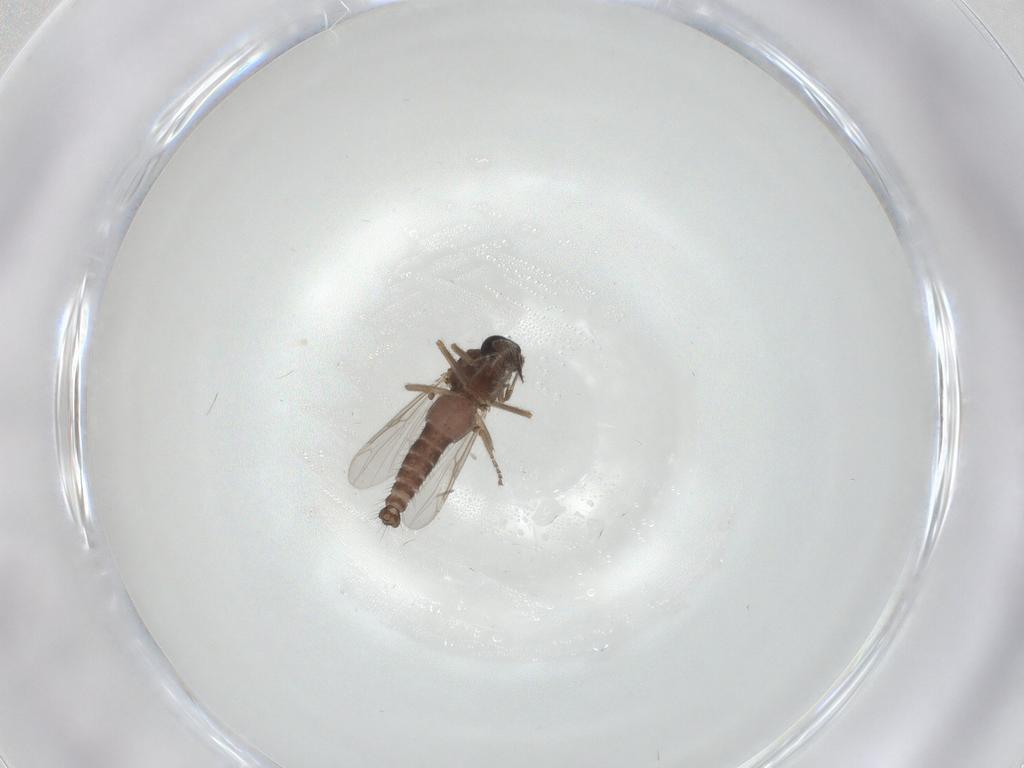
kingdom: Animalia
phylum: Arthropoda
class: Insecta
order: Diptera
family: Ceratopogonidae
